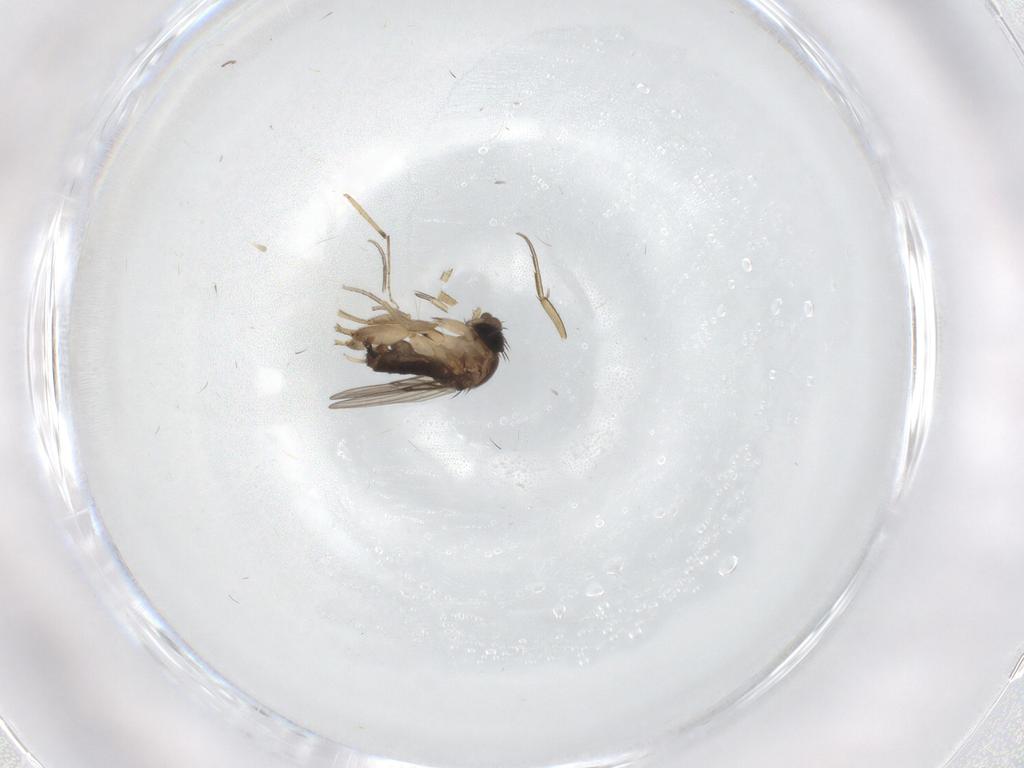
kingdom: Animalia
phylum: Arthropoda
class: Insecta
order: Diptera
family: Phoridae
